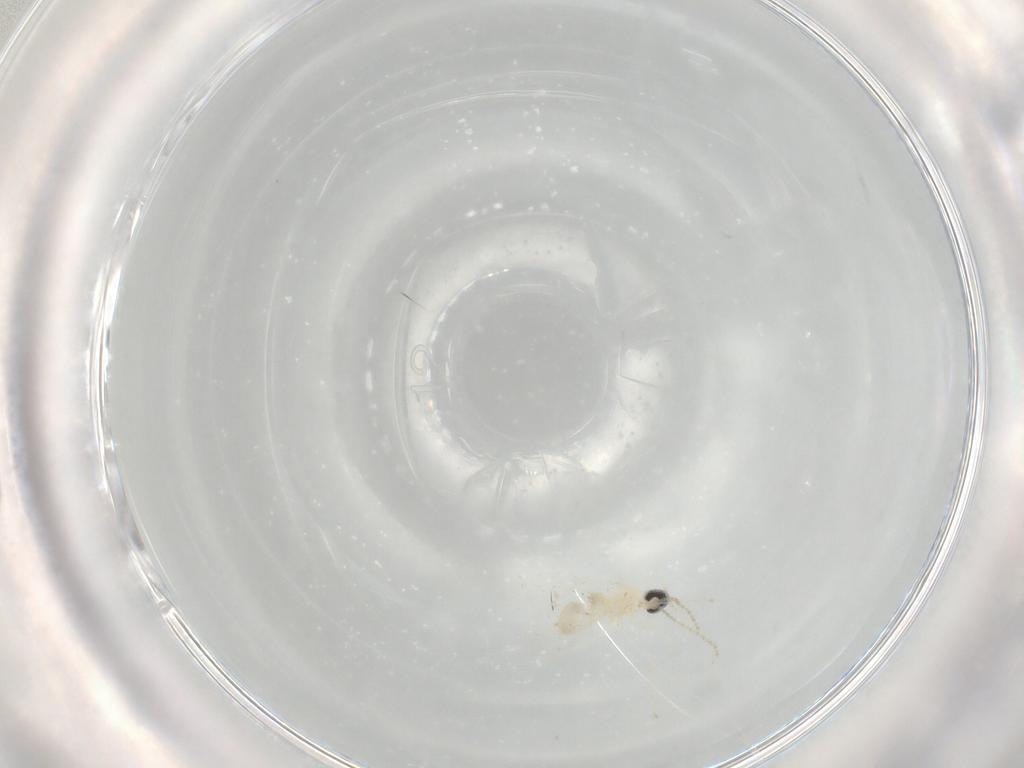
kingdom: Animalia
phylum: Arthropoda
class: Insecta
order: Diptera
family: Cecidomyiidae
